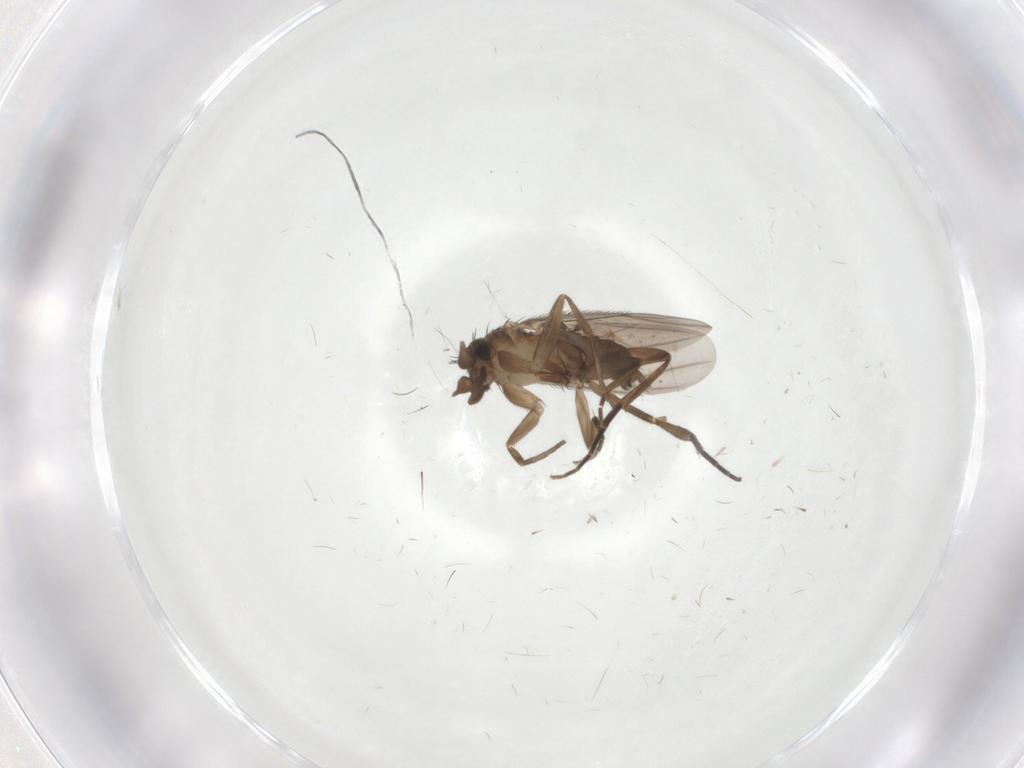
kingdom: Animalia
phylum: Arthropoda
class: Insecta
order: Diptera
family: Phoridae
